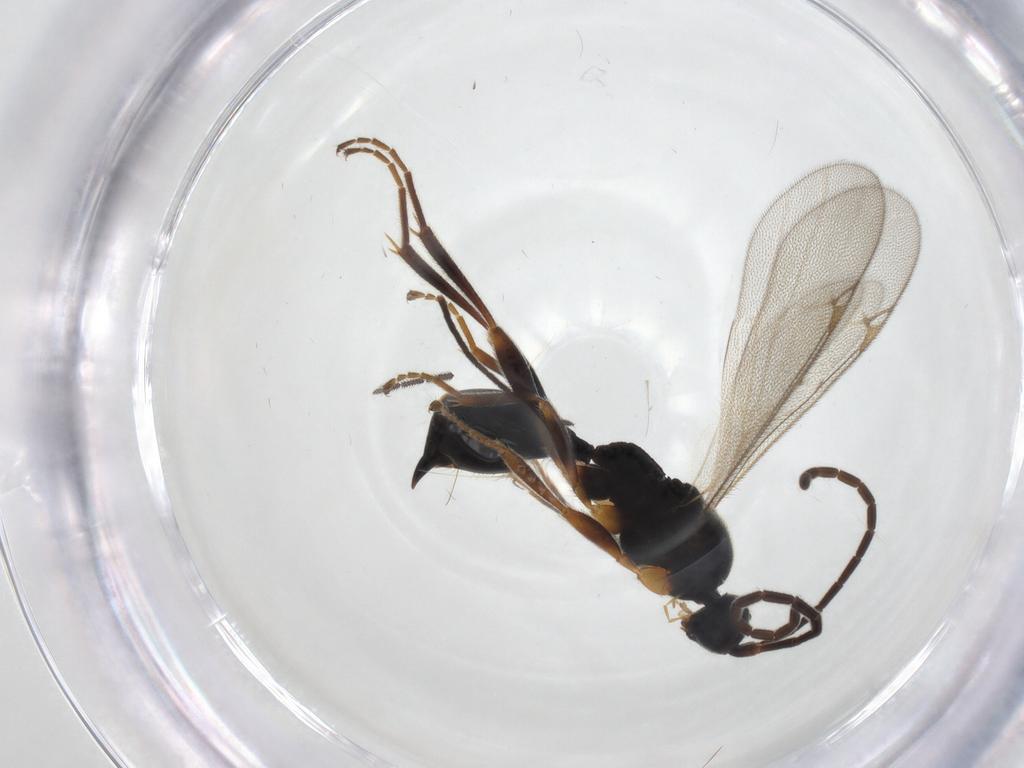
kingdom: Animalia
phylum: Arthropoda
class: Insecta
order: Hymenoptera
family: Proctotrupidae
